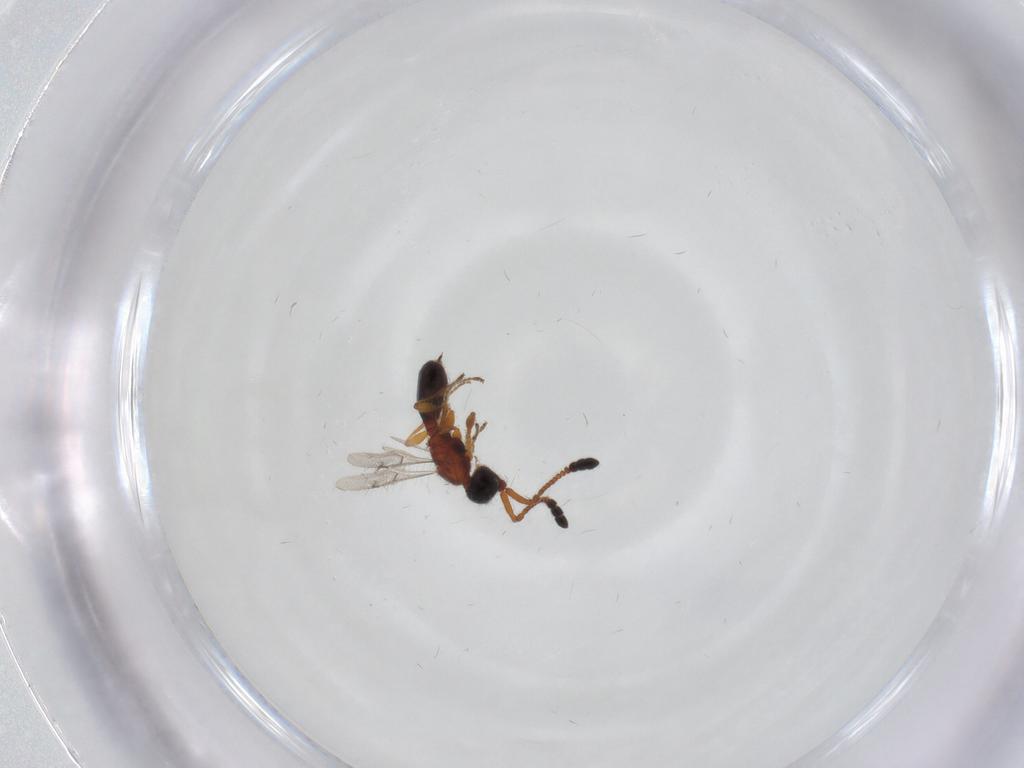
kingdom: Animalia
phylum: Arthropoda
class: Insecta
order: Hymenoptera
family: Diapriidae
